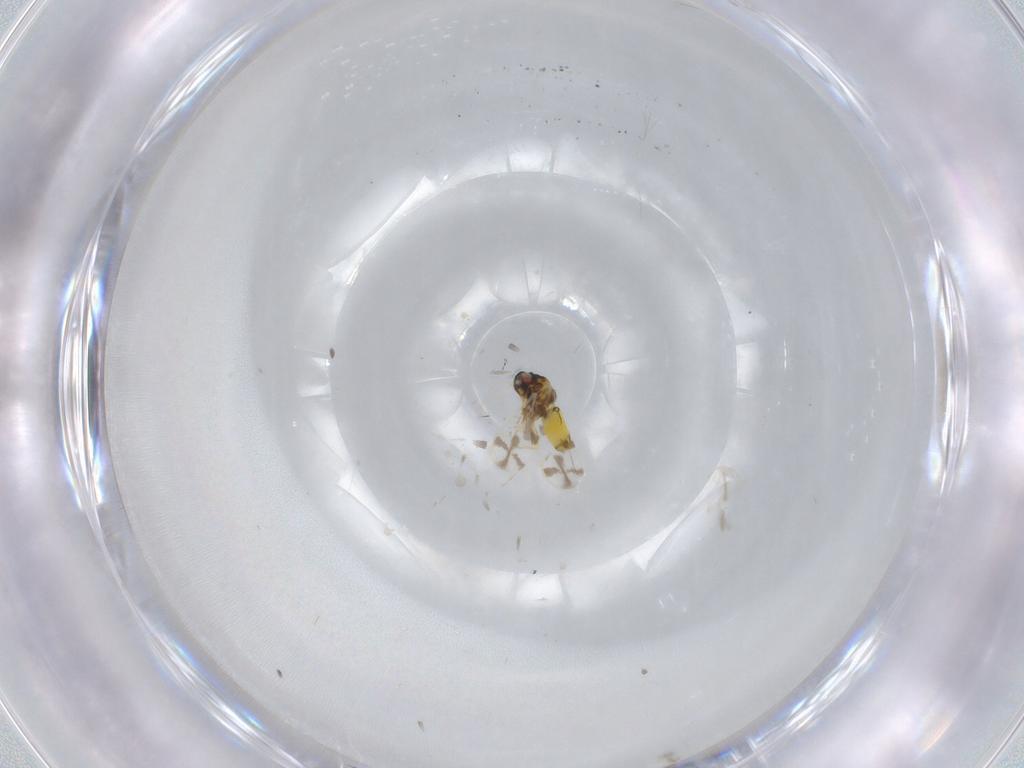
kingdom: Animalia
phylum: Arthropoda
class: Insecta
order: Hemiptera
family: Aleyrodidae
